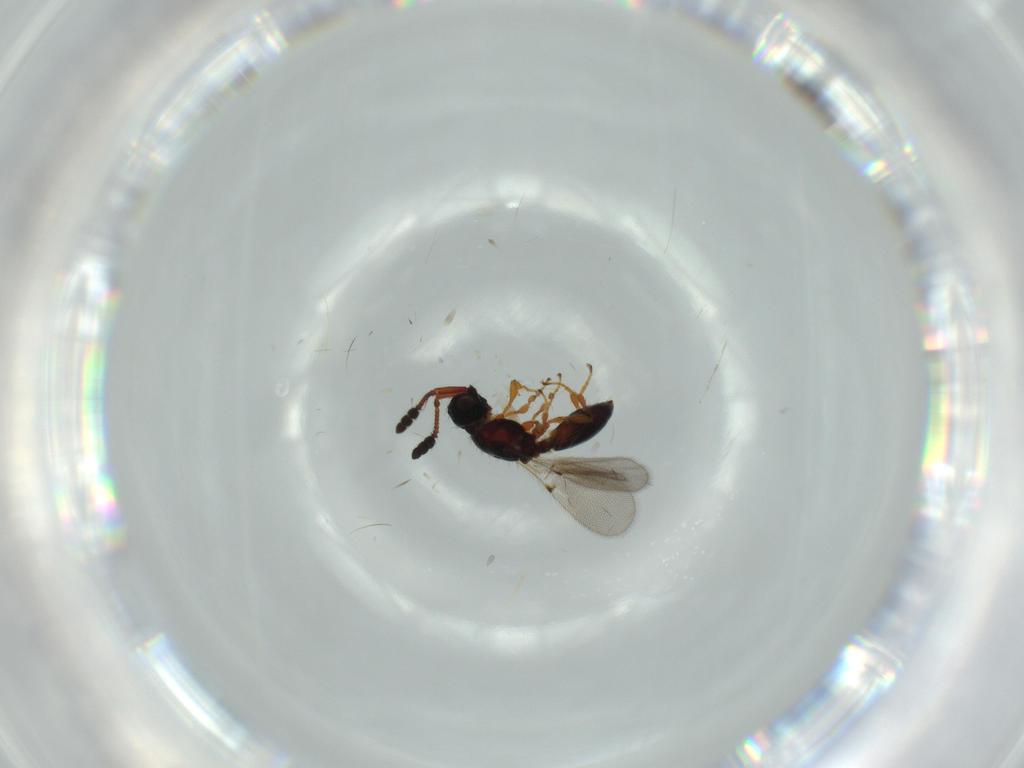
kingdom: Animalia
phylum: Arthropoda
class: Insecta
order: Hymenoptera
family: Diapriidae
